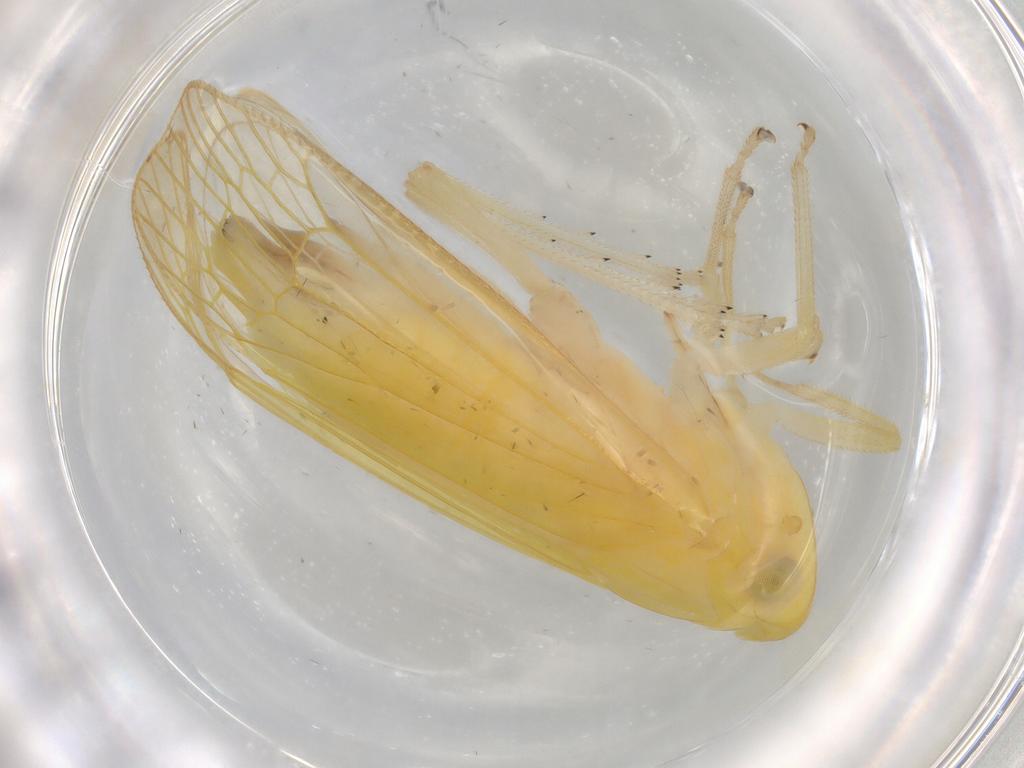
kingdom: Animalia
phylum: Arthropoda
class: Insecta
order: Hemiptera
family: Tropiduchidae
